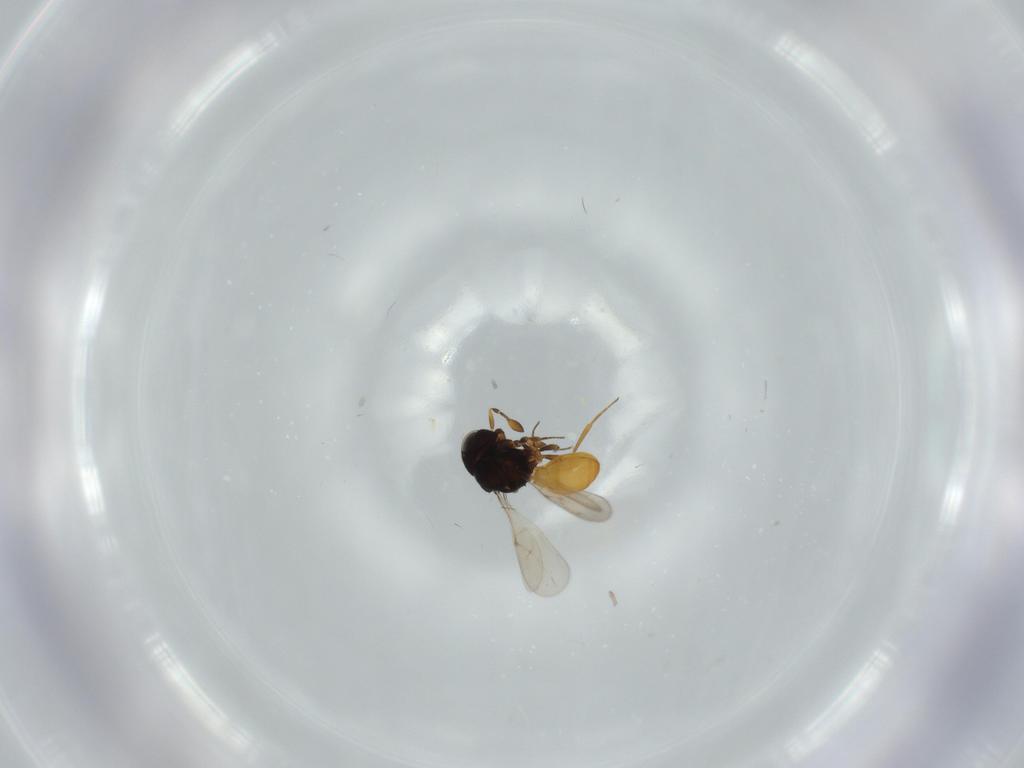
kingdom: Animalia
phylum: Arthropoda
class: Insecta
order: Hymenoptera
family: Scelionidae
